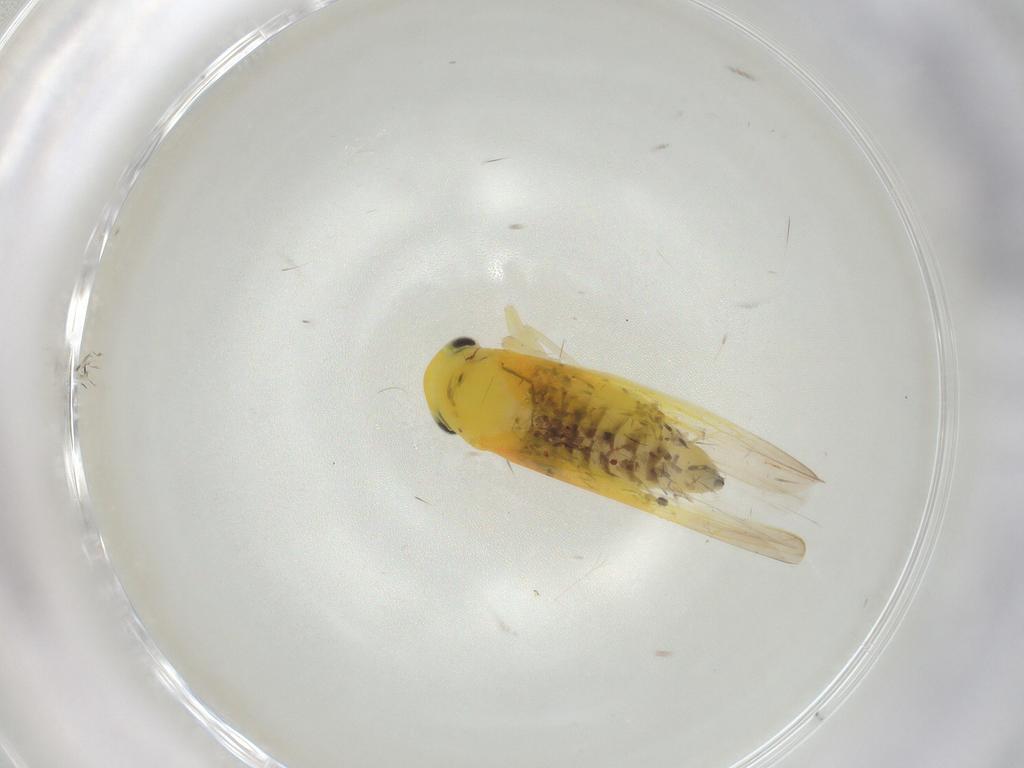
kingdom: Animalia
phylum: Arthropoda
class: Insecta
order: Hemiptera
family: Cicadellidae
